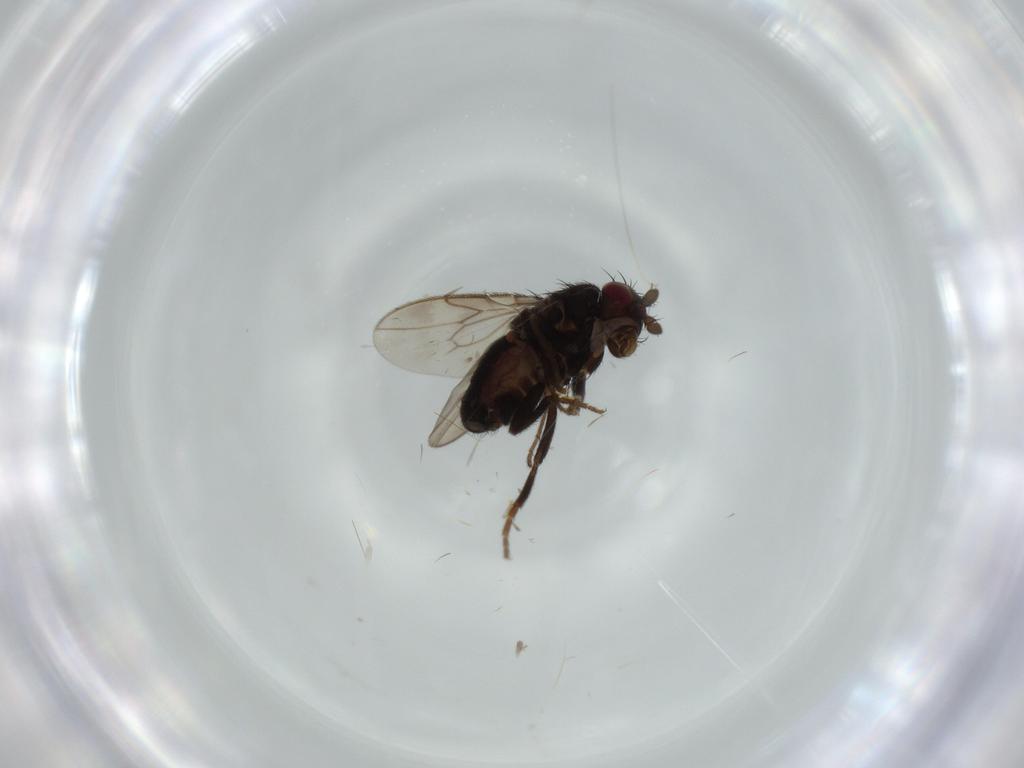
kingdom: Animalia
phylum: Arthropoda
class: Insecta
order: Diptera
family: Sphaeroceridae
